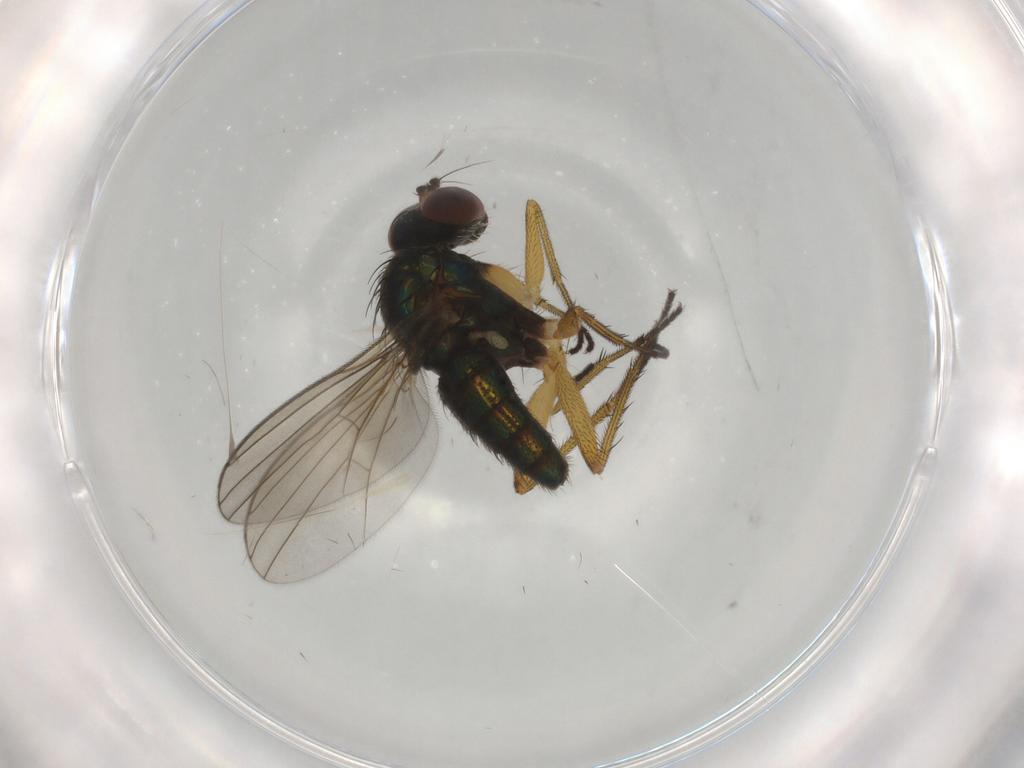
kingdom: Animalia
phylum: Arthropoda
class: Insecta
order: Diptera
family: Dolichopodidae
